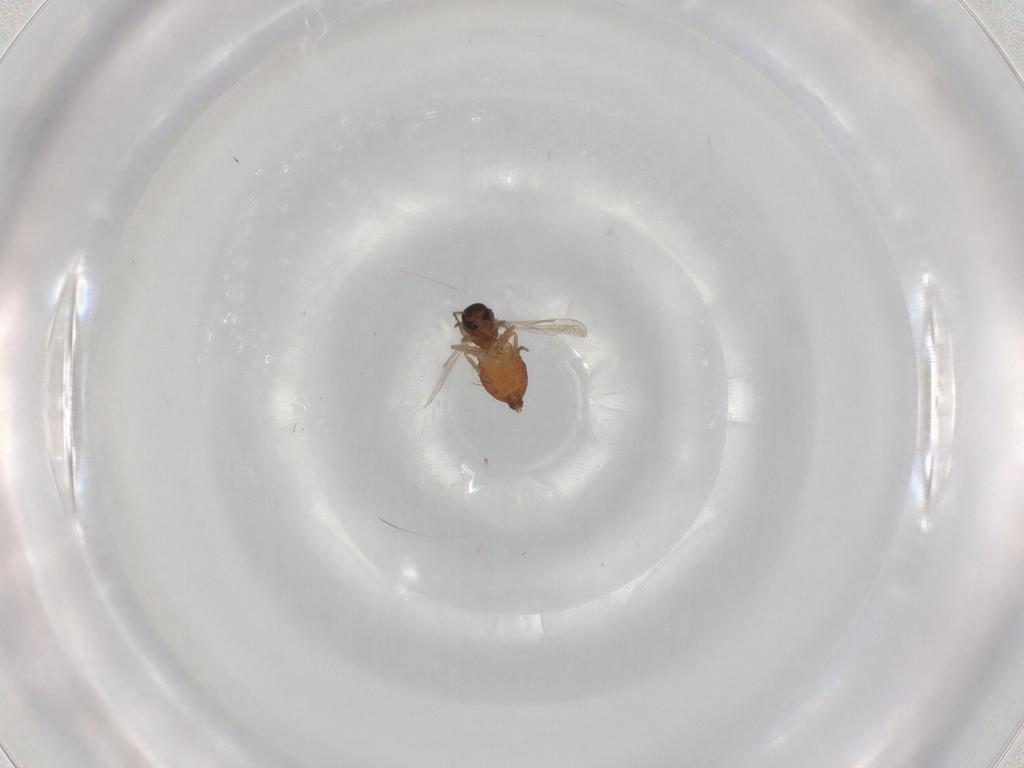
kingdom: Animalia
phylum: Arthropoda
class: Insecta
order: Diptera
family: Ceratopogonidae
